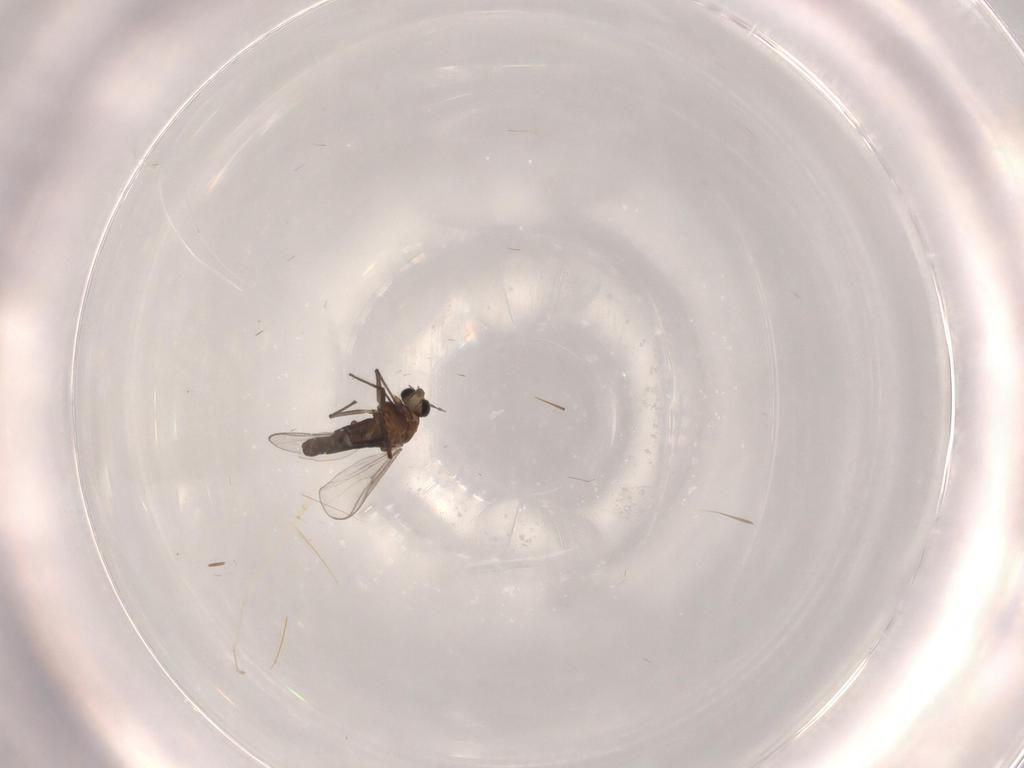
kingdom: Animalia
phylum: Arthropoda
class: Insecta
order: Diptera
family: Chironomidae
